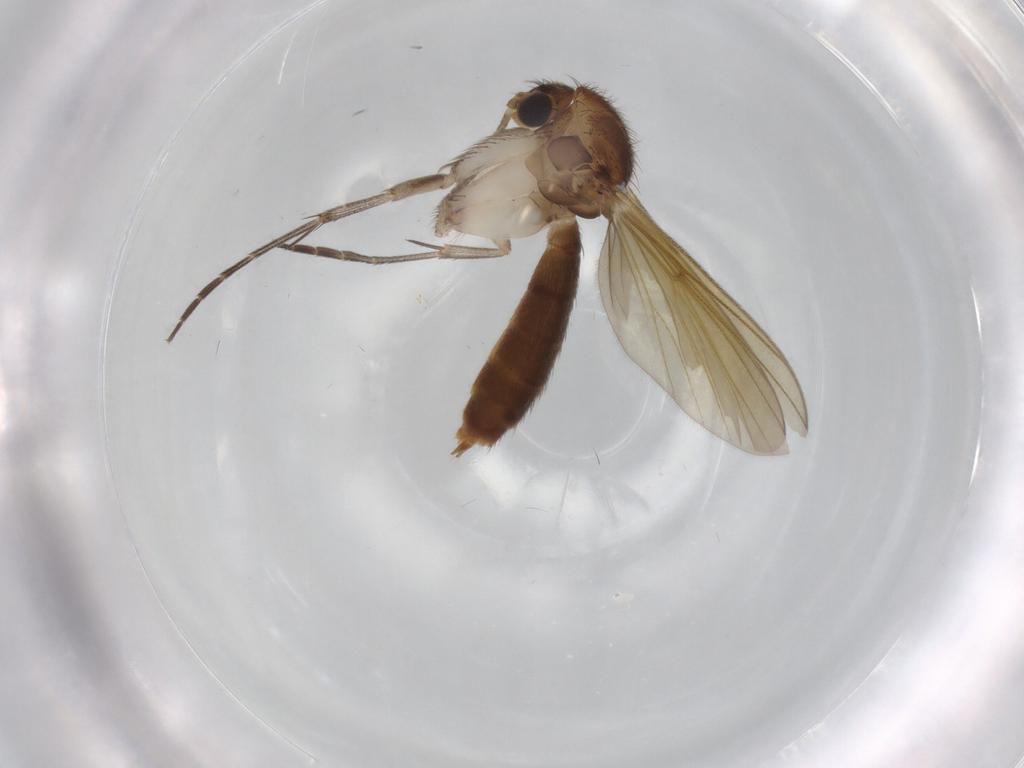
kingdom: Animalia
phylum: Arthropoda
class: Insecta
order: Diptera
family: Mycetophilidae
